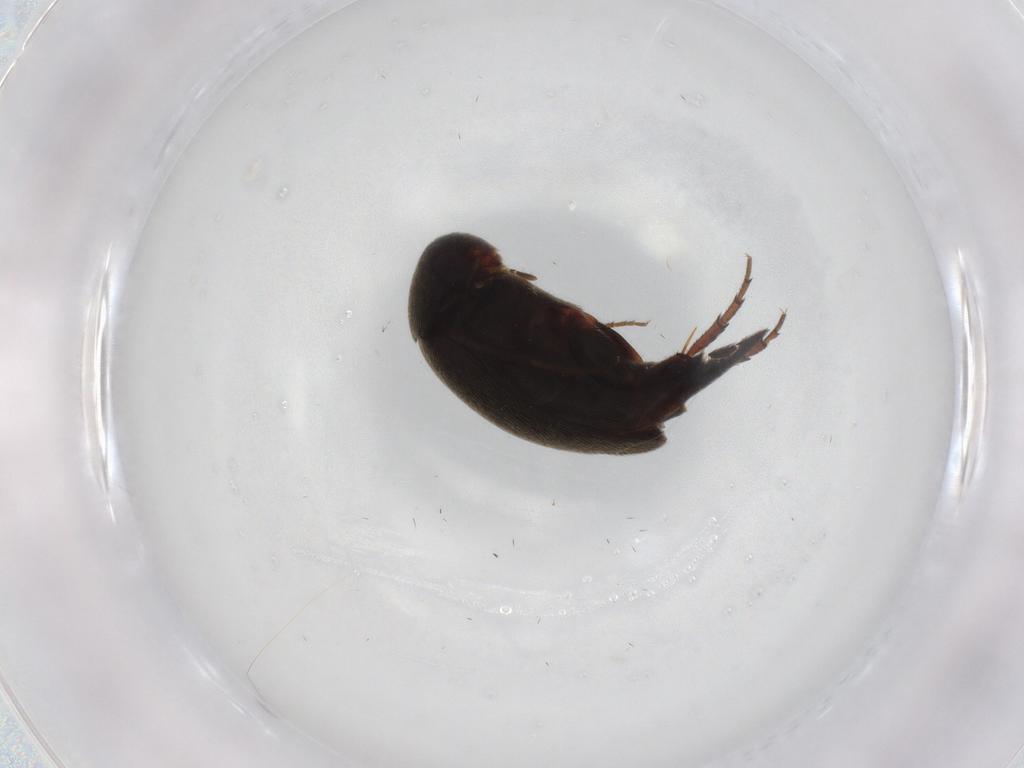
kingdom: Animalia
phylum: Arthropoda
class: Insecta
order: Coleoptera
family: Mordellidae
